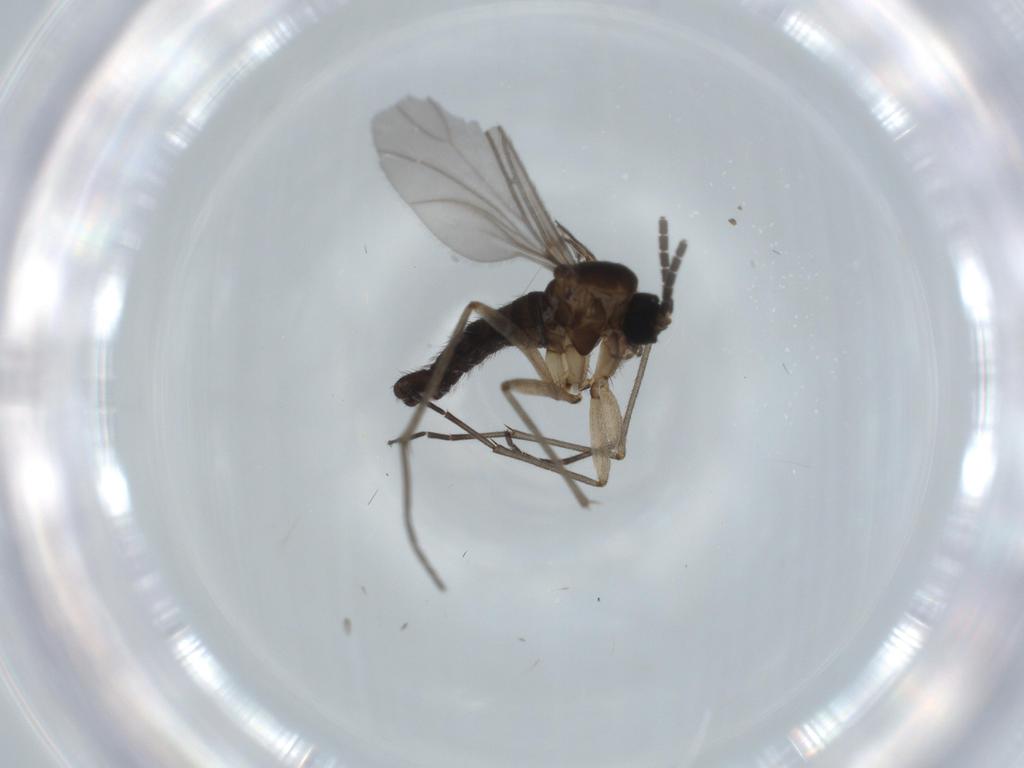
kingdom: Animalia
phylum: Arthropoda
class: Insecta
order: Diptera
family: Sciaridae
